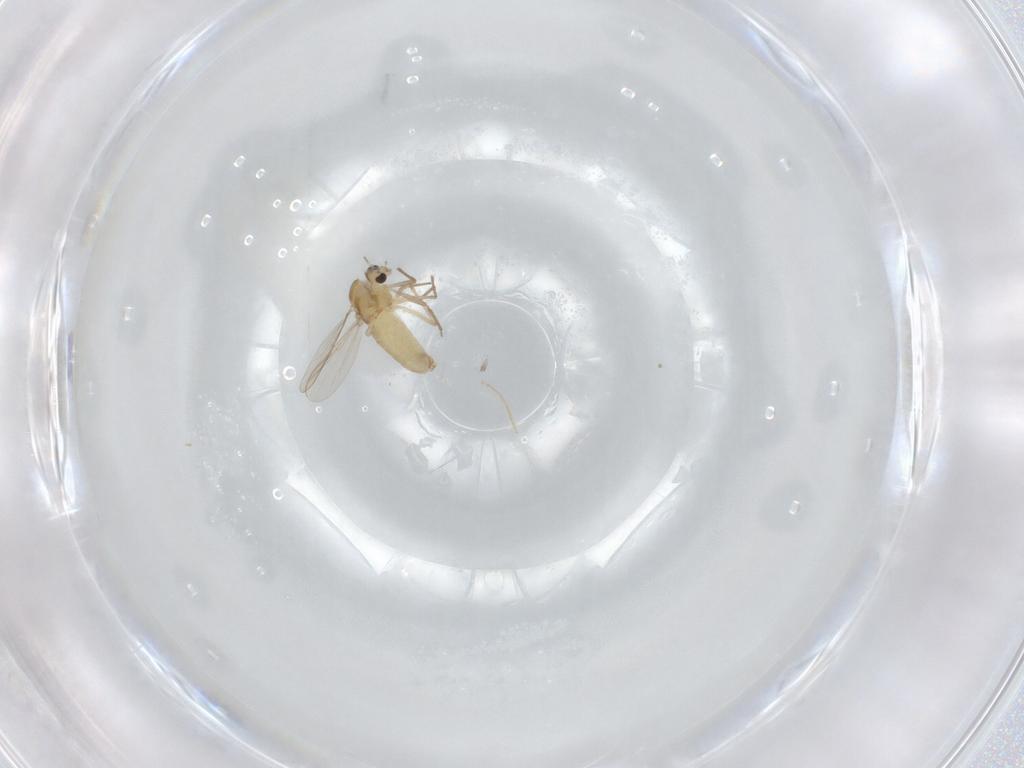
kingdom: Animalia
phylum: Arthropoda
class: Insecta
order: Diptera
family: Chironomidae
